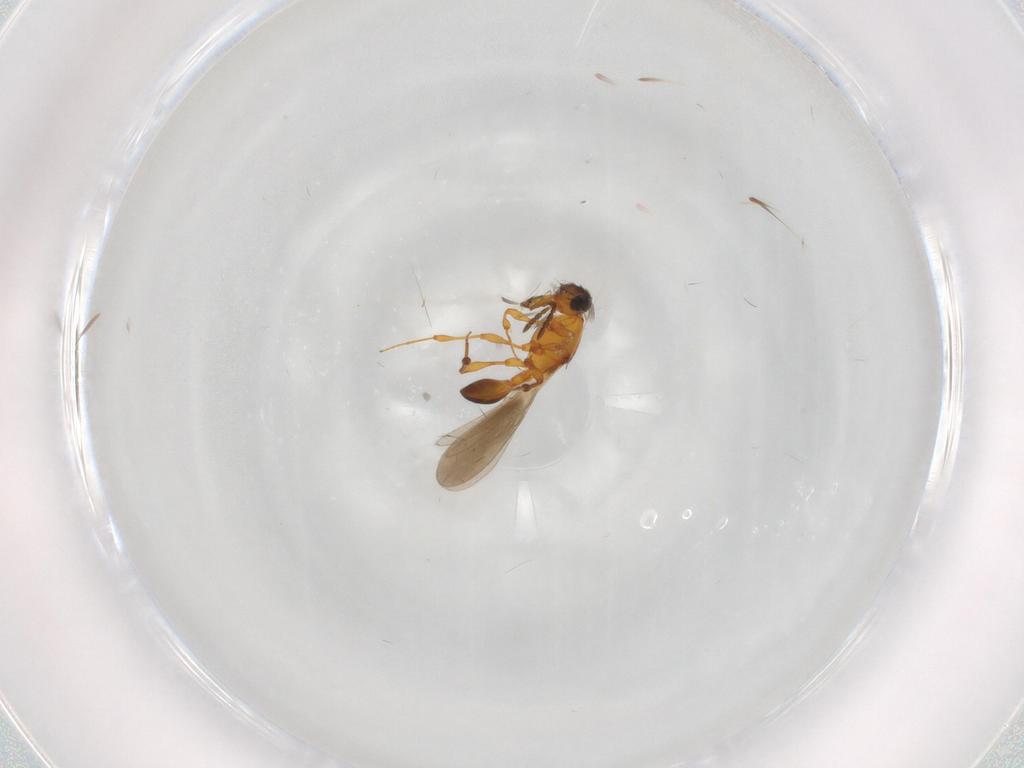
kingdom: Animalia
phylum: Arthropoda
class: Insecta
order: Hymenoptera
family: Platygastridae
